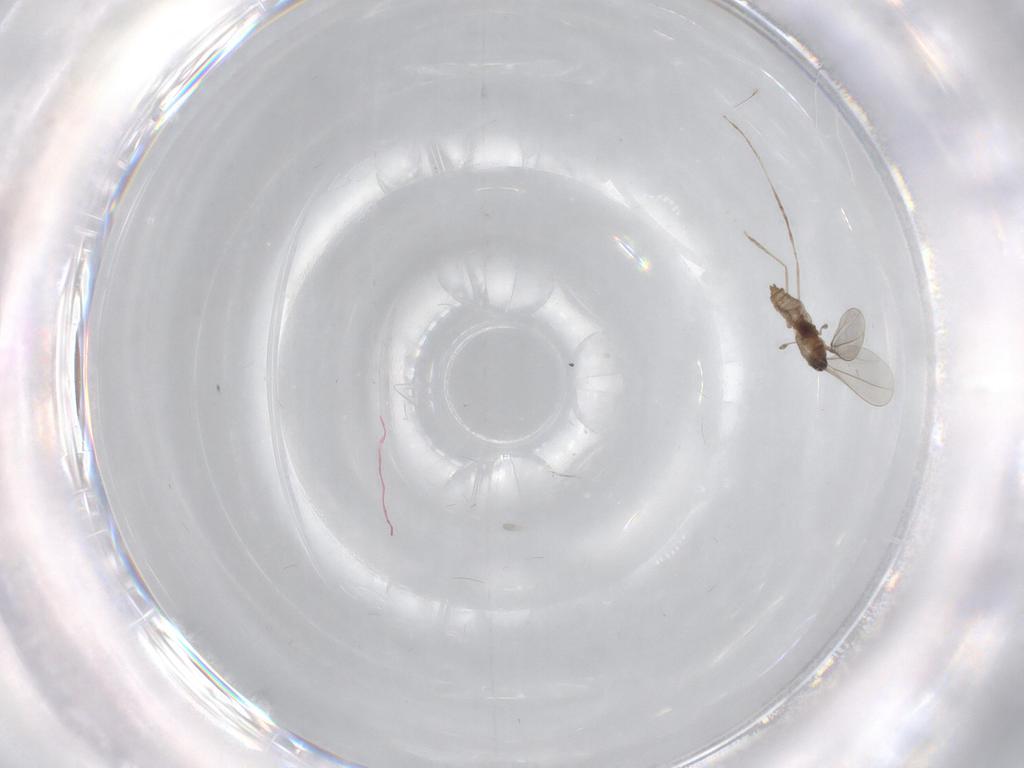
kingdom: Animalia
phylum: Arthropoda
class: Insecta
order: Diptera
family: Cecidomyiidae
